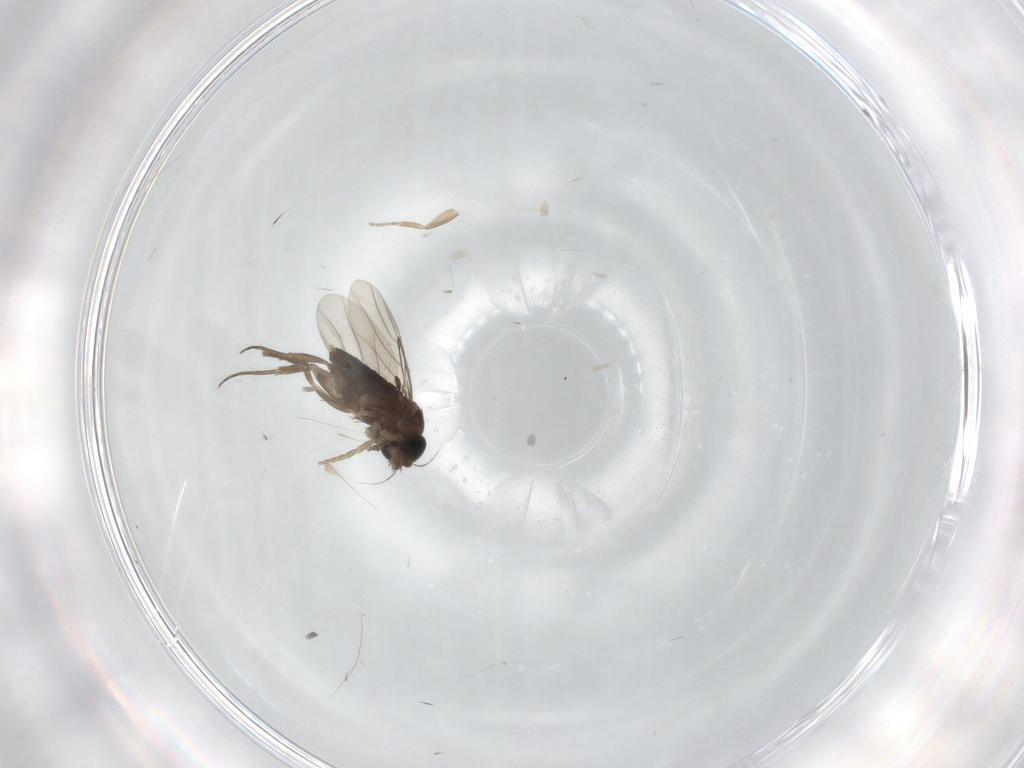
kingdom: Animalia
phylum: Arthropoda
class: Insecta
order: Diptera
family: Phoridae
